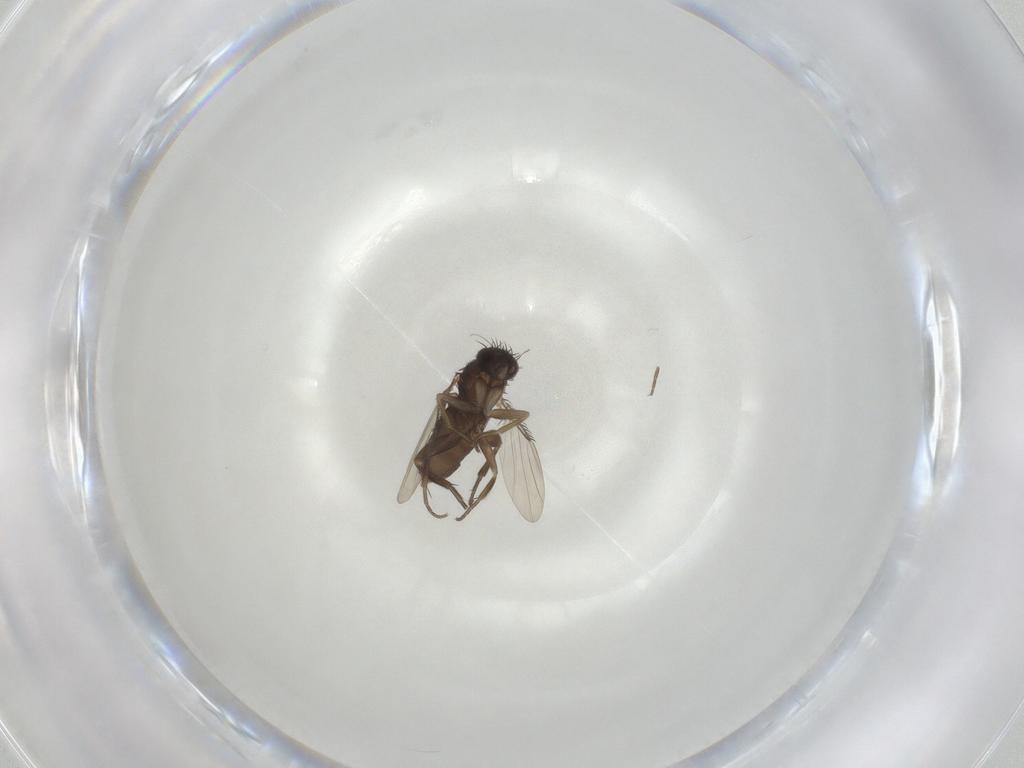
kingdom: Animalia
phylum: Arthropoda
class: Insecta
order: Diptera
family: Phoridae
